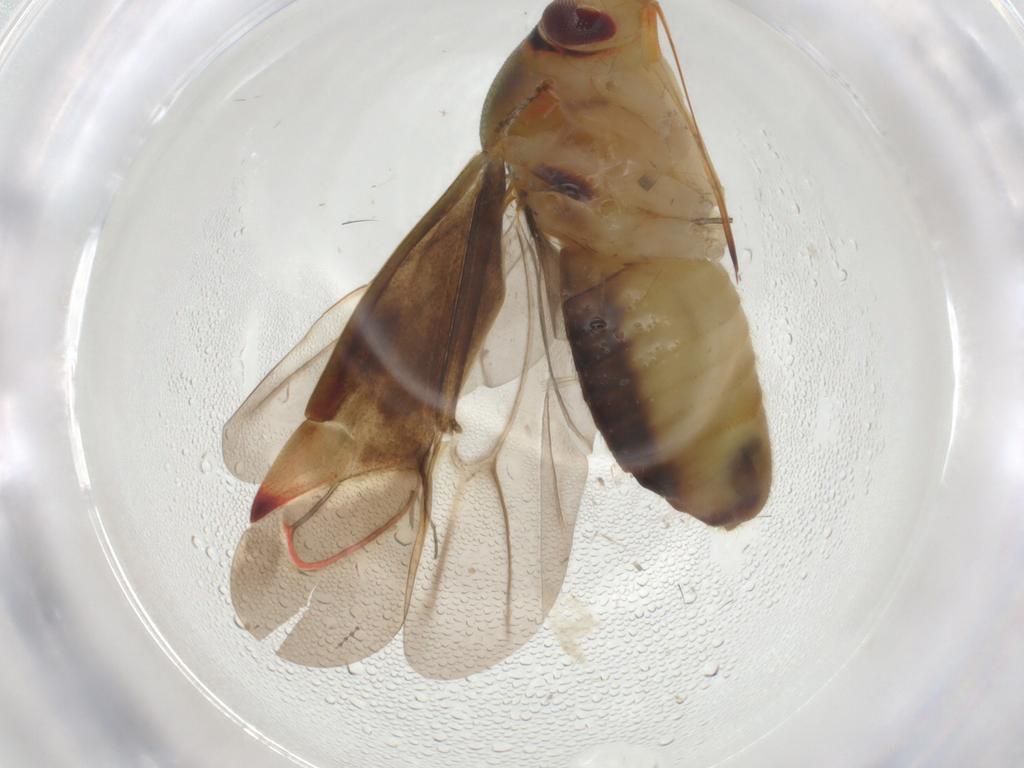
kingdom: Animalia
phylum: Arthropoda
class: Insecta
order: Hemiptera
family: Miridae
